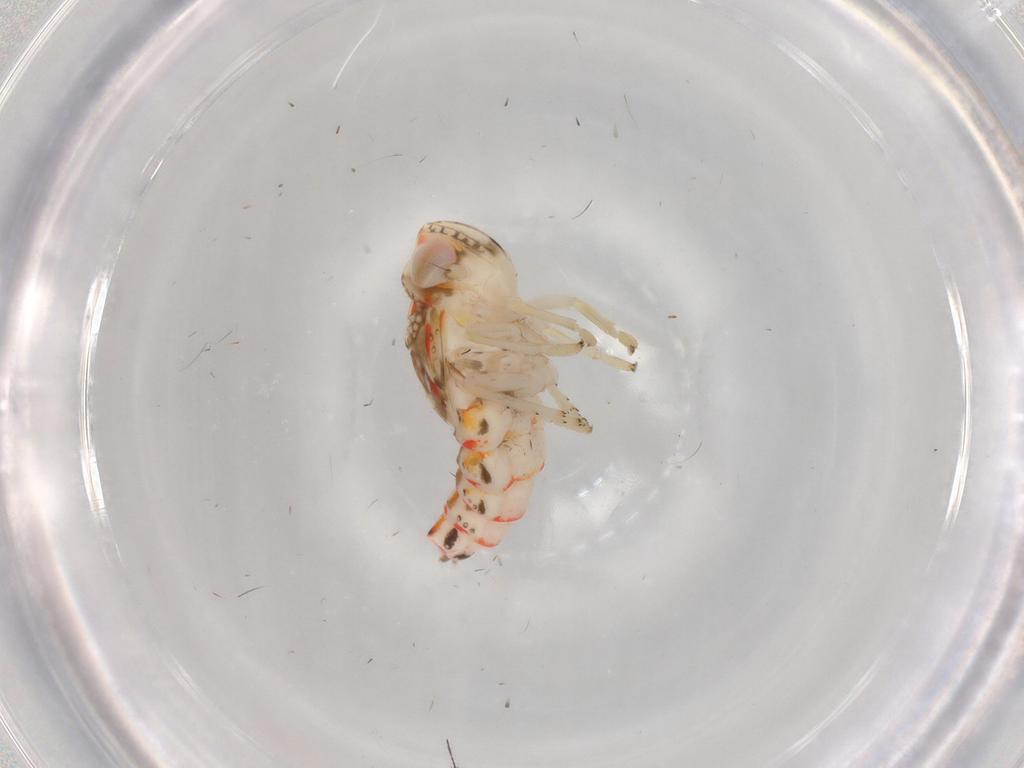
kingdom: Animalia
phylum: Arthropoda
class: Insecta
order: Hemiptera
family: Nogodinidae
